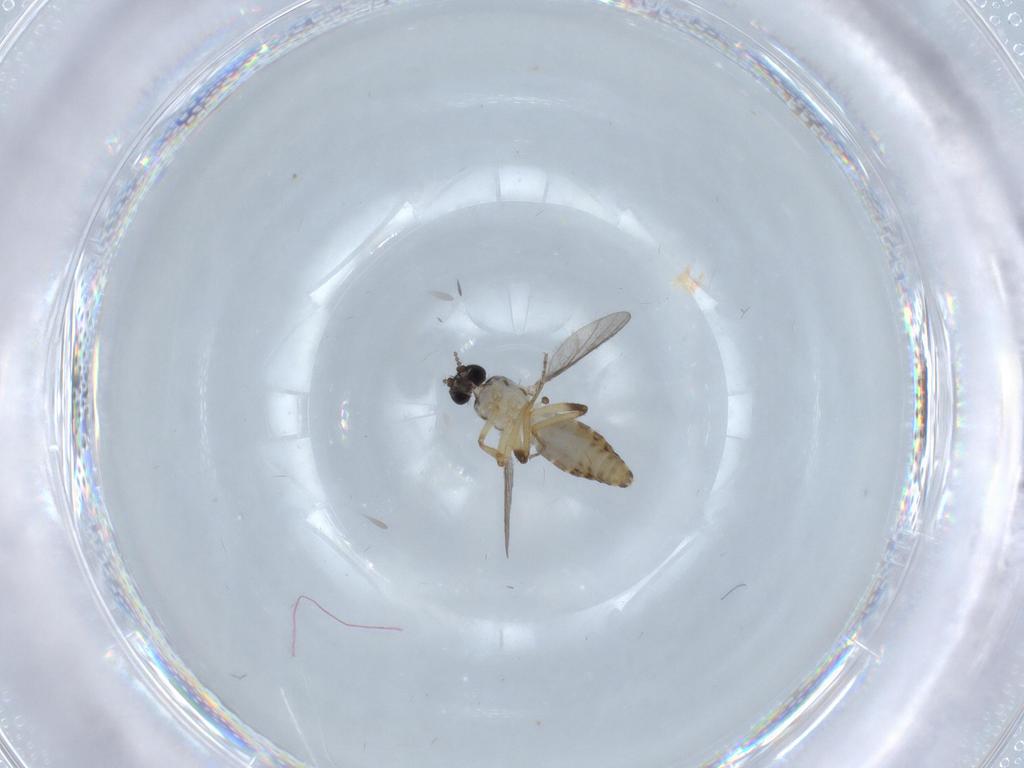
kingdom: Animalia
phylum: Arthropoda
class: Insecta
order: Diptera
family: Ceratopogonidae
